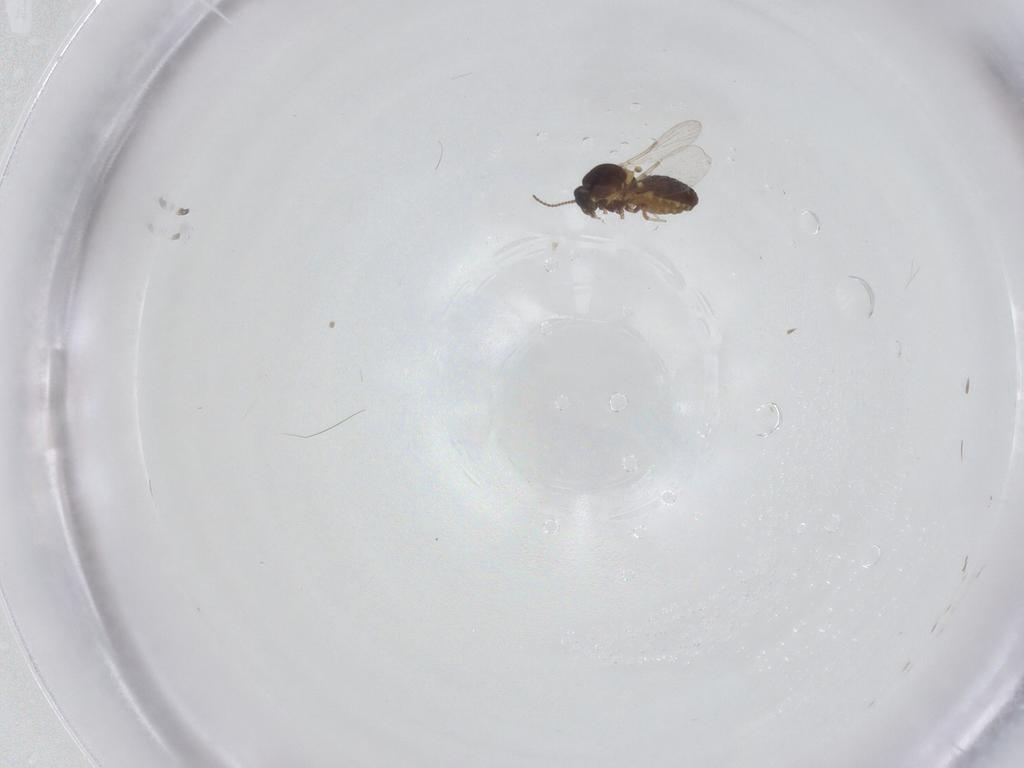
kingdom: Animalia
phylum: Arthropoda
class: Insecta
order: Diptera
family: Ceratopogonidae
